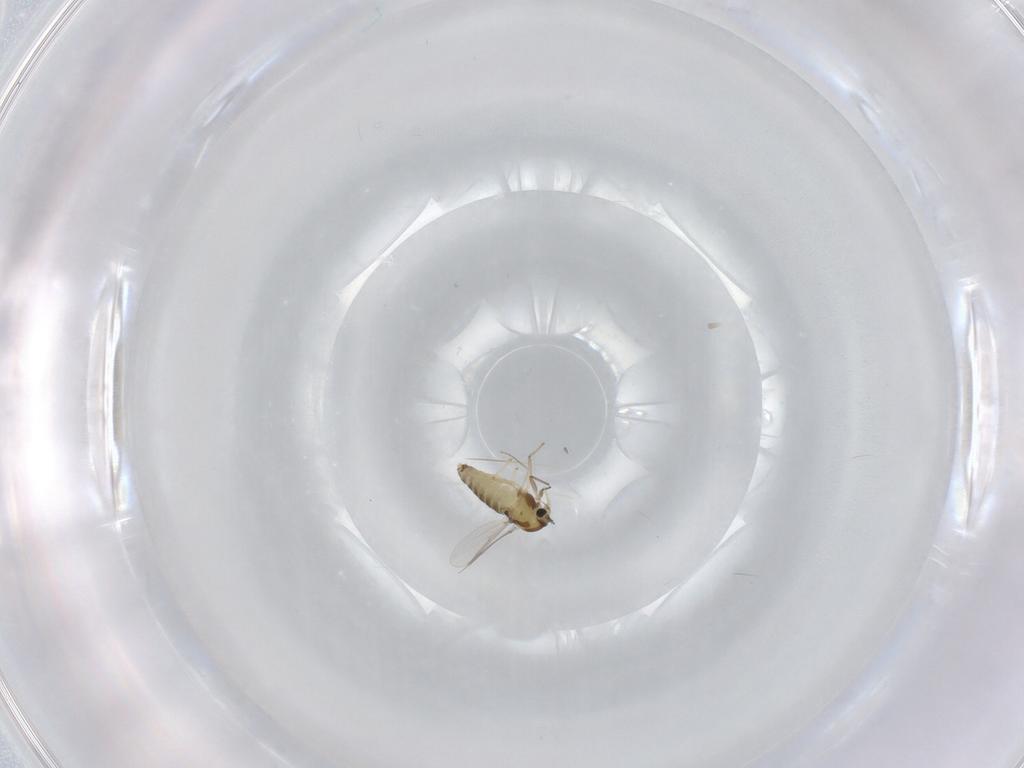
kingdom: Animalia
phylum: Arthropoda
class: Insecta
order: Diptera
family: Chironomidae
